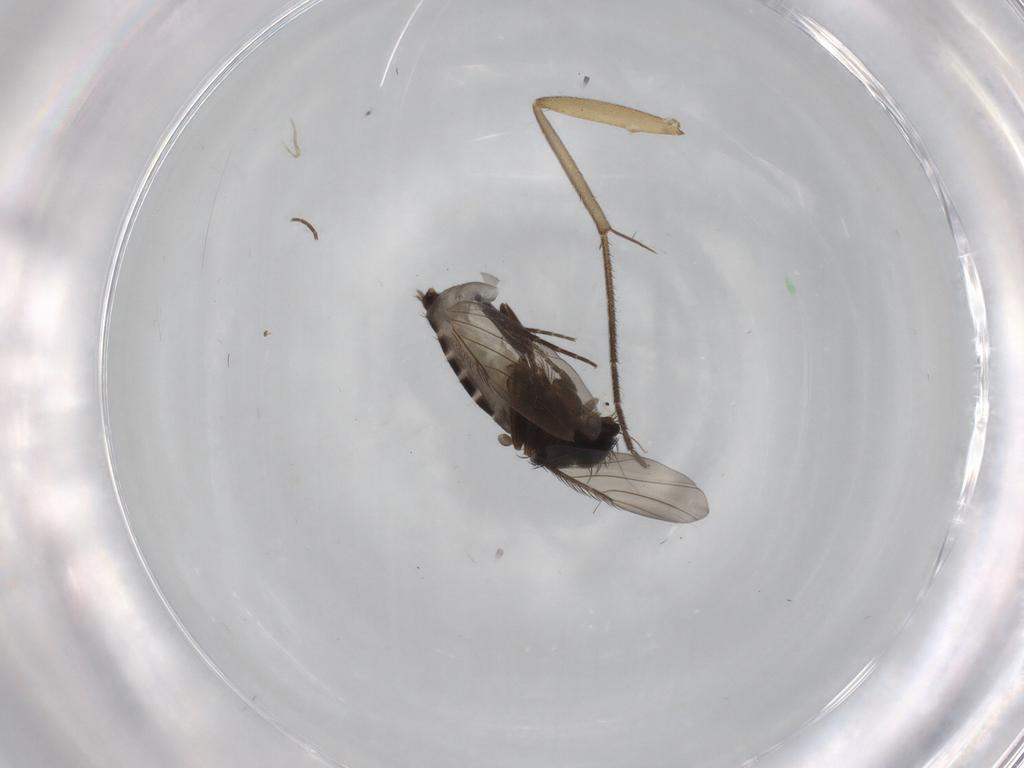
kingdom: Animalia
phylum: Arthropoda
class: Insecta
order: Diptera
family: Phoridae
